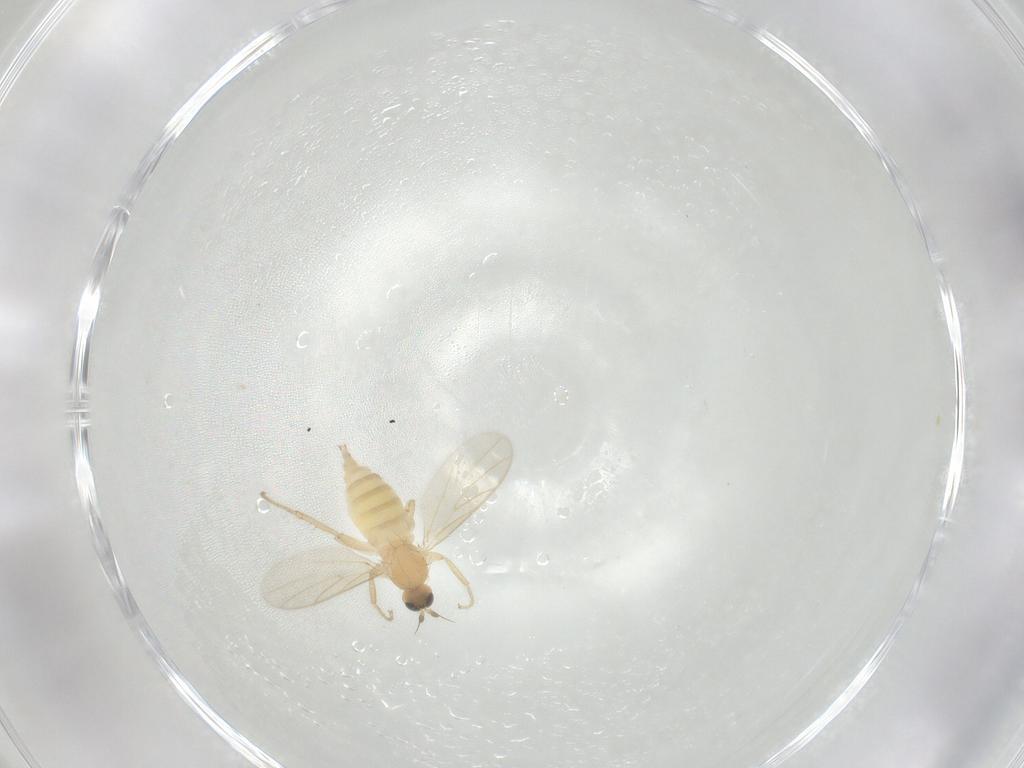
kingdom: Animalia
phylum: Arthropoda
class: Insecta
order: Diptera
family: Hybotidae
